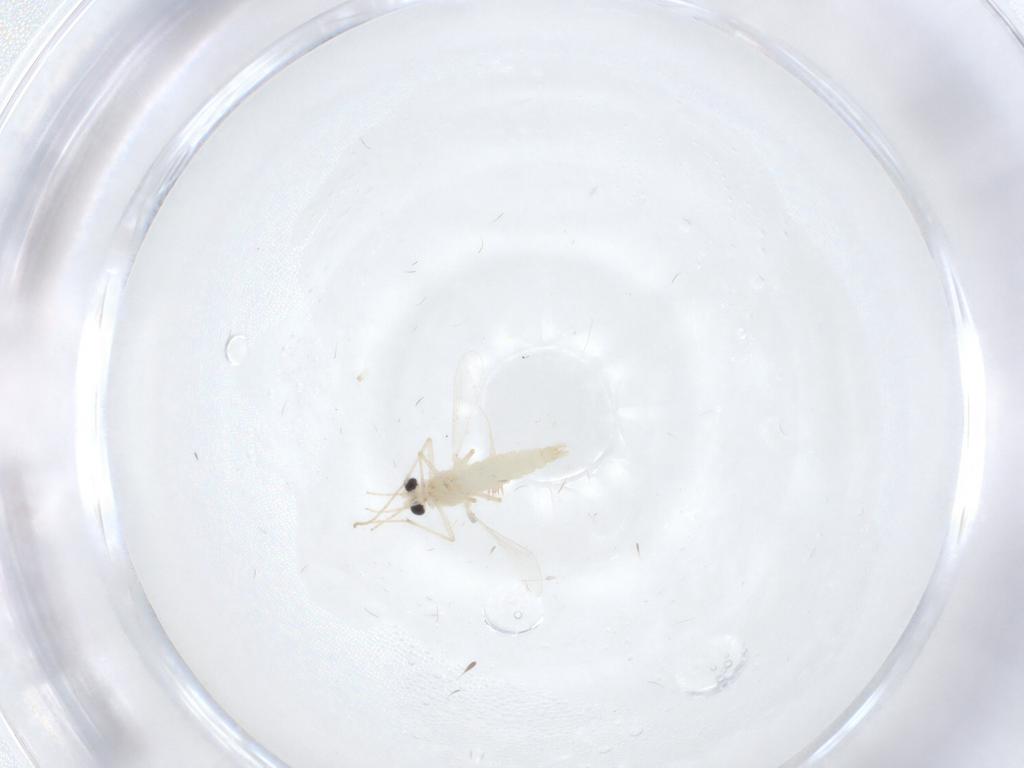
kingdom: Animalia
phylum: Arthropoda
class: Insecta
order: Diptera
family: Chironomidae
